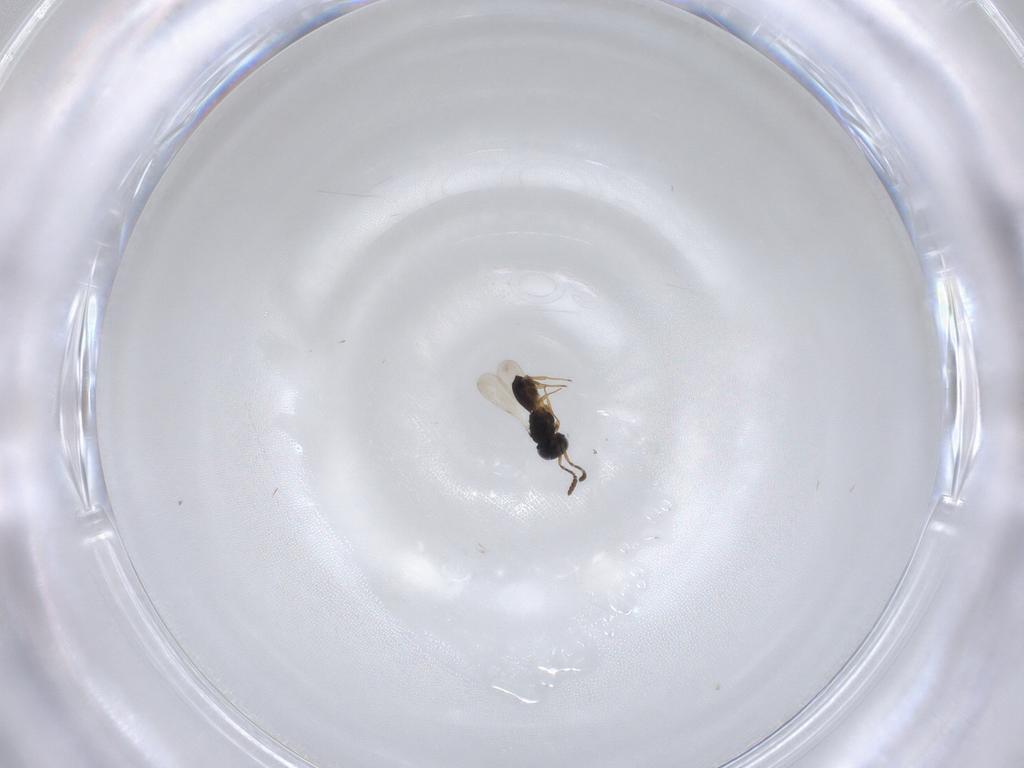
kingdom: Animalia
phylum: Arthropoda
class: Insecta
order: Hymenoptera
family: Scelionidae
